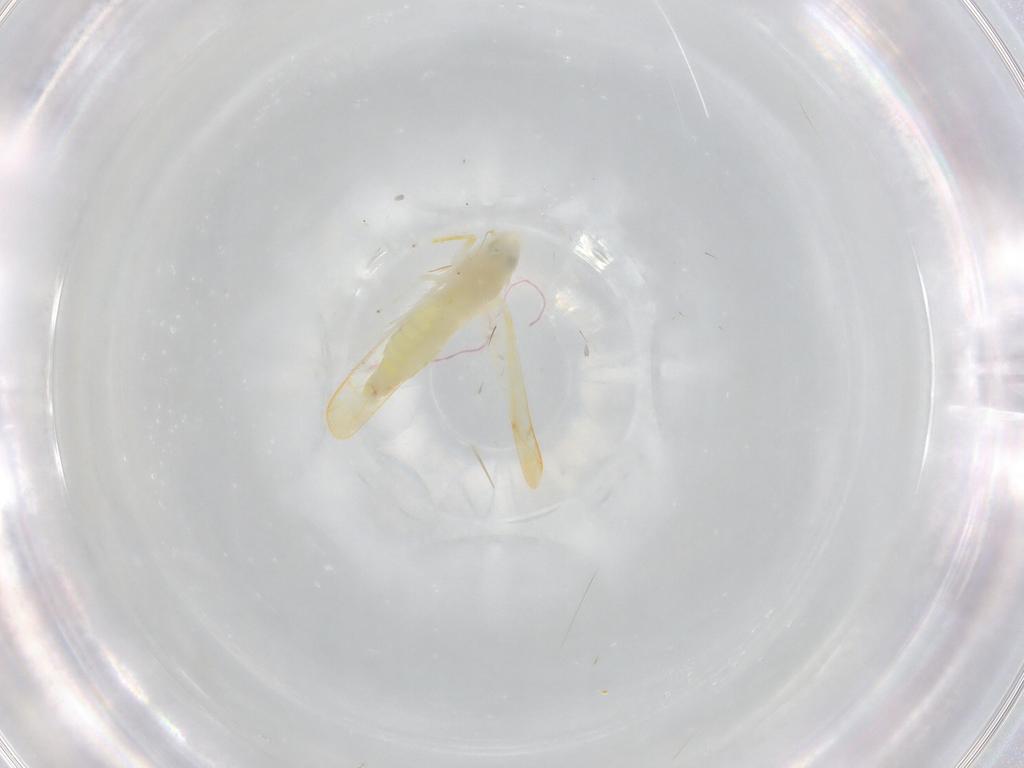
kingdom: Animalia
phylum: Arthropoda
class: Insecta
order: Hemiptera
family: Cicadellidae
